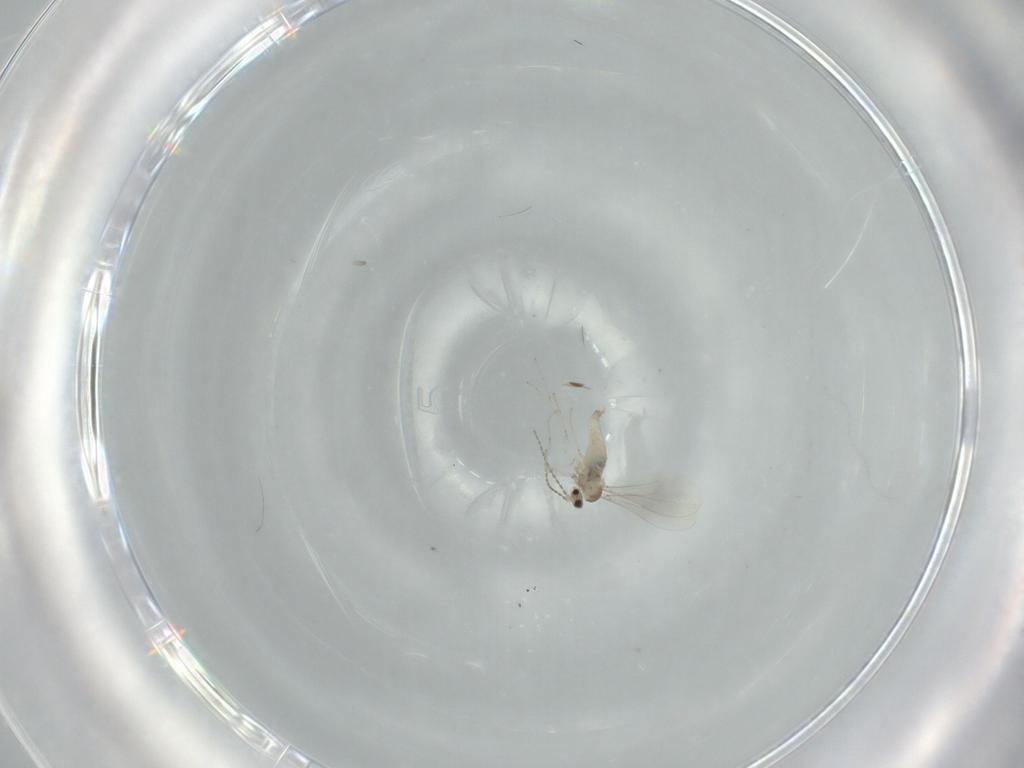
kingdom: Animalia
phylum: Arthropoda
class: Insecta
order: Diptera
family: Cecidomyiidae
